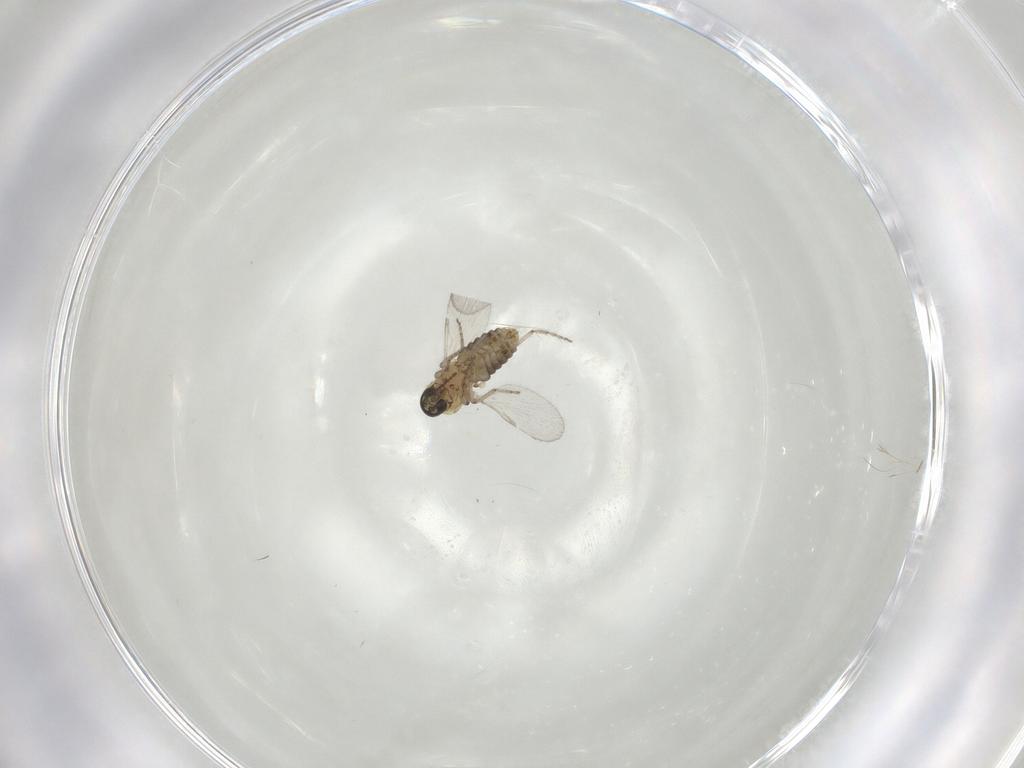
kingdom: Animalia
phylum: Arthropoda
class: Insecta
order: Diptera
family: Ceratopogonidae
